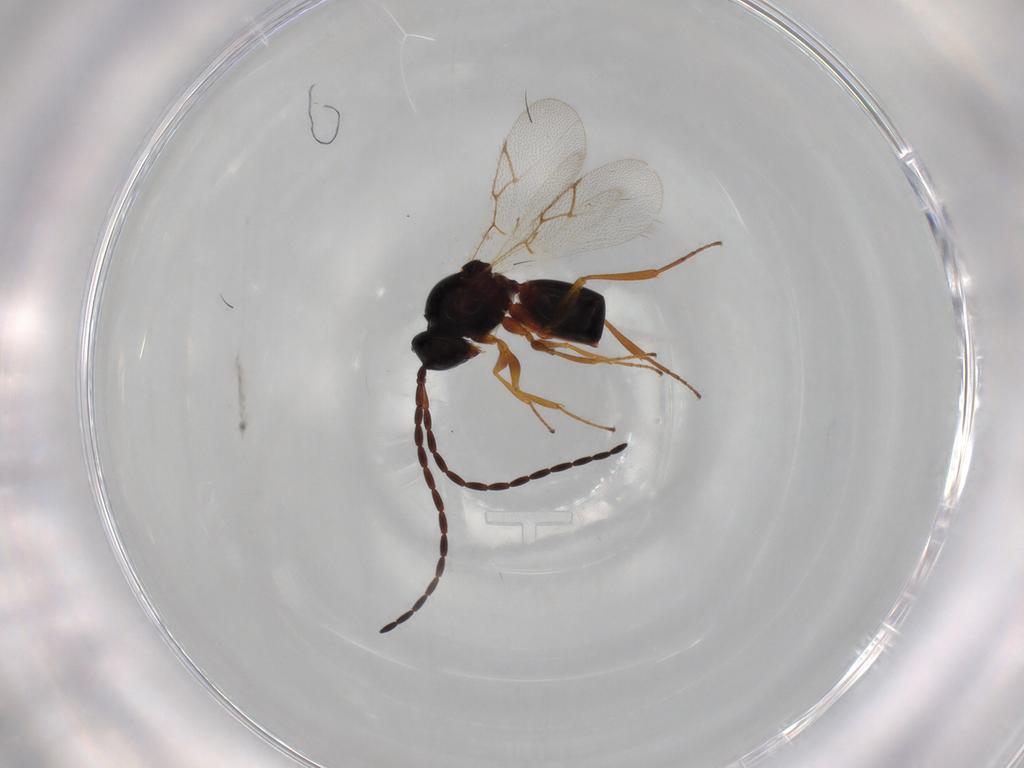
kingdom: Animalia
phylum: Arthropoda
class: Insecta
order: Hymenoptera
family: Figitidae
